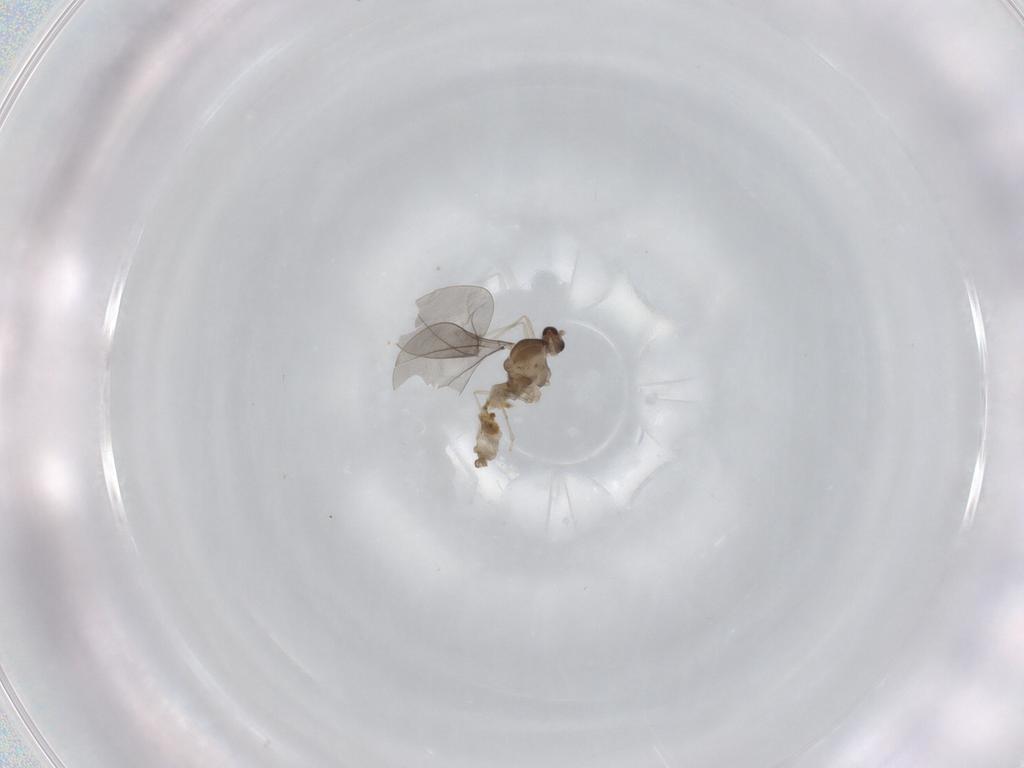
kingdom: Animalia
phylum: Arthropoda
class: Insecta
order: Diptera
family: Cecidomyiidae
